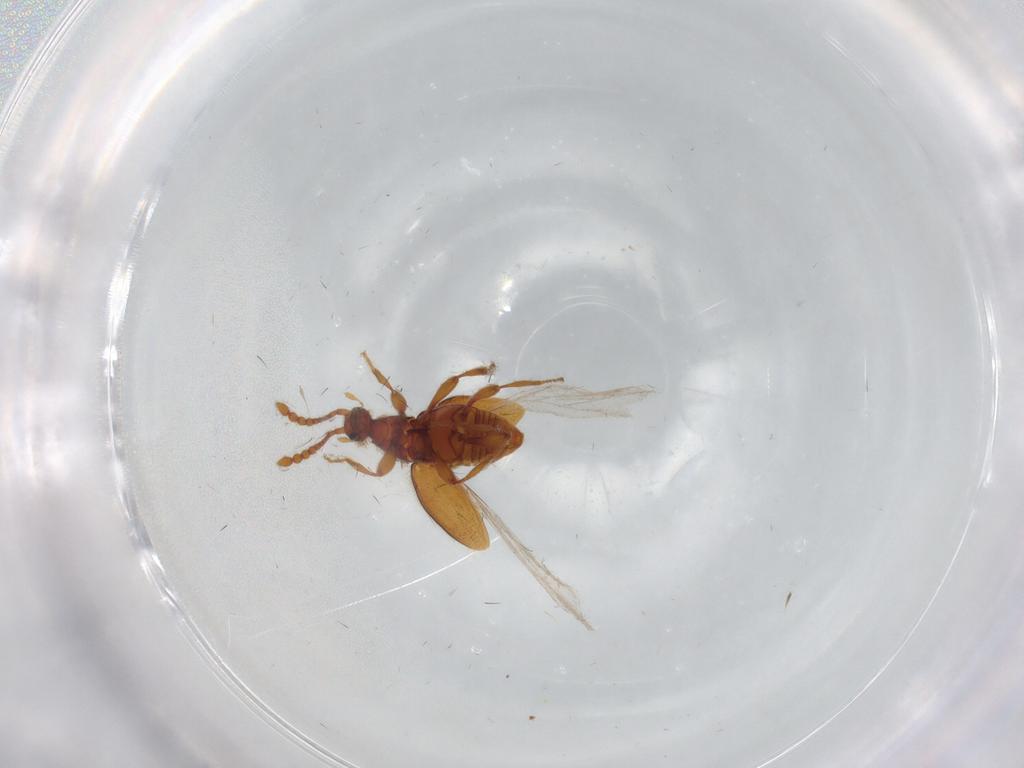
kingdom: Animalia
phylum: Arthropoda
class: Insecta
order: Coleoptera
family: Staphylinidae
